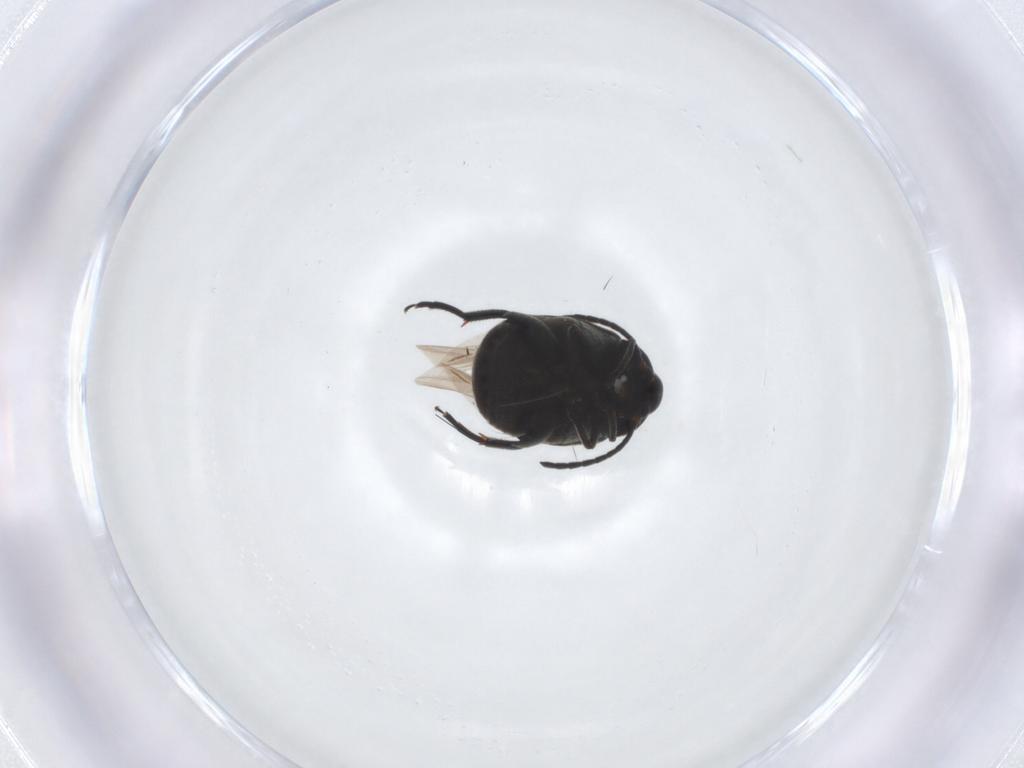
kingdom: Animalia
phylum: Arthropoda
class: Insecta
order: Coleoptera
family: Chrysomelidae
